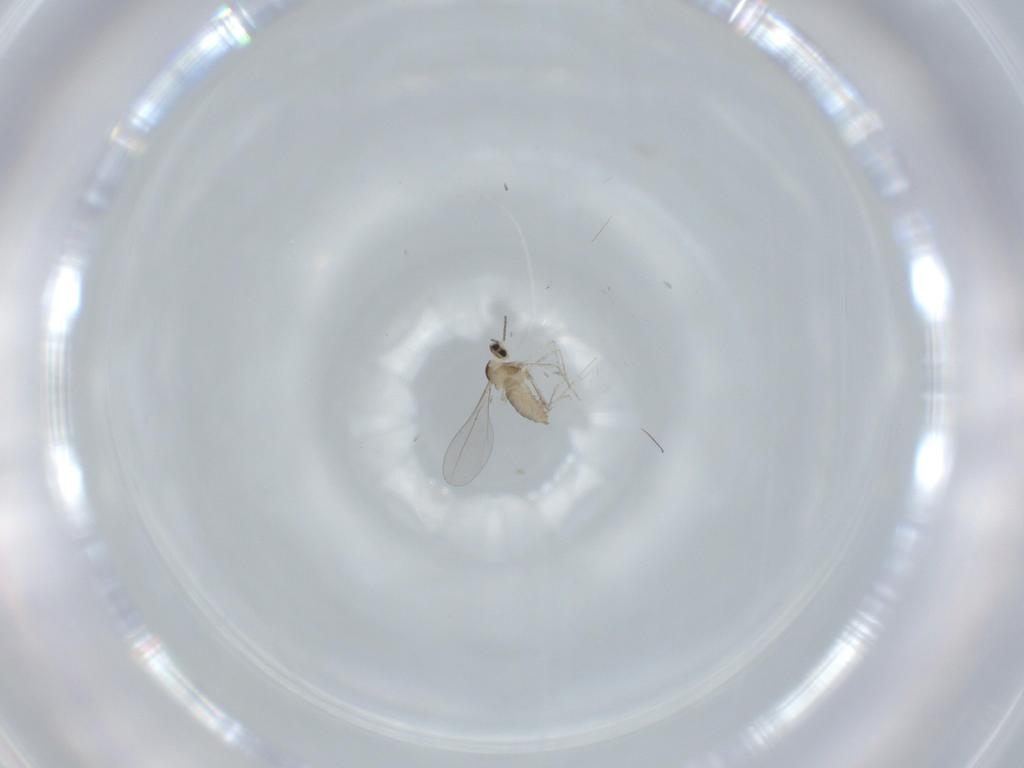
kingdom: Animalia
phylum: Arthropoda
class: Insecta
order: Diptera
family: Cecidomyiidae
